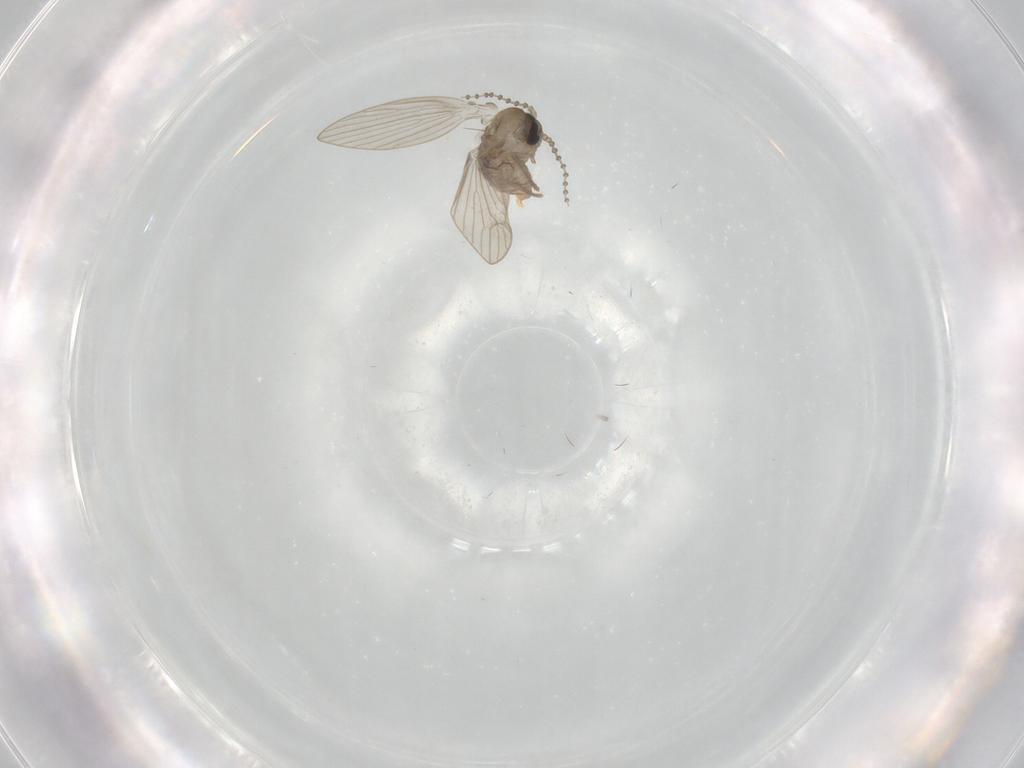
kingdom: Animalia
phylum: Arthropoda
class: Insecta
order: Diptera
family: Psychodidae
